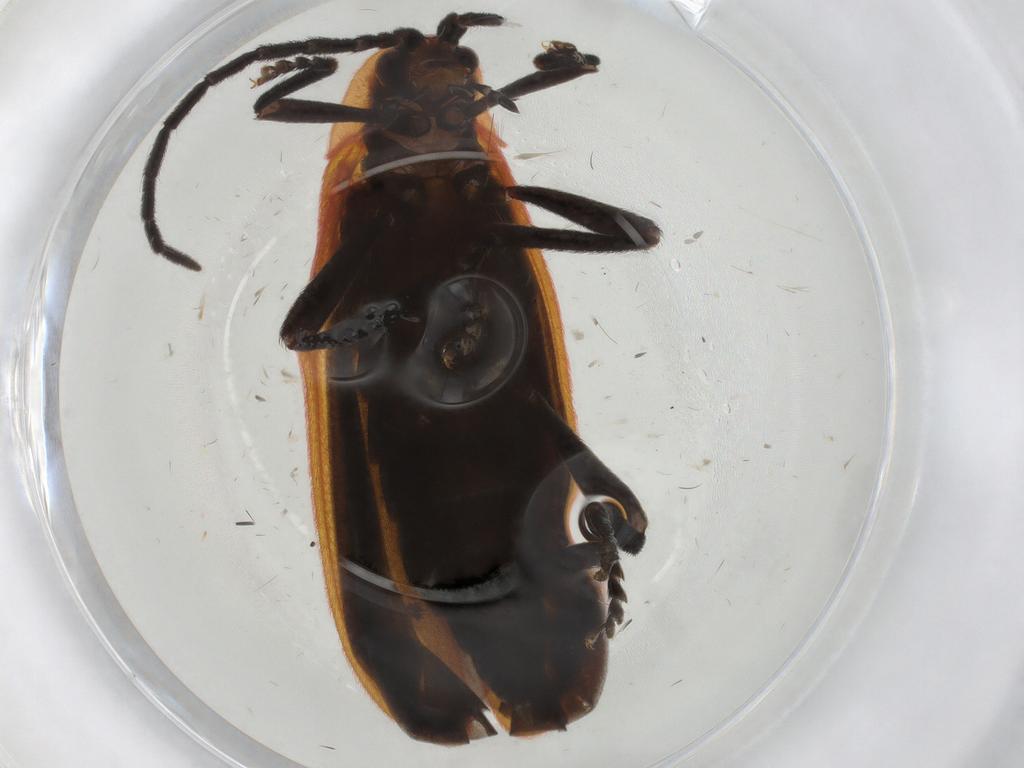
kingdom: Animalia
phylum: Arthropoda
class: Insecta
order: Coleoptera
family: Lycidae
